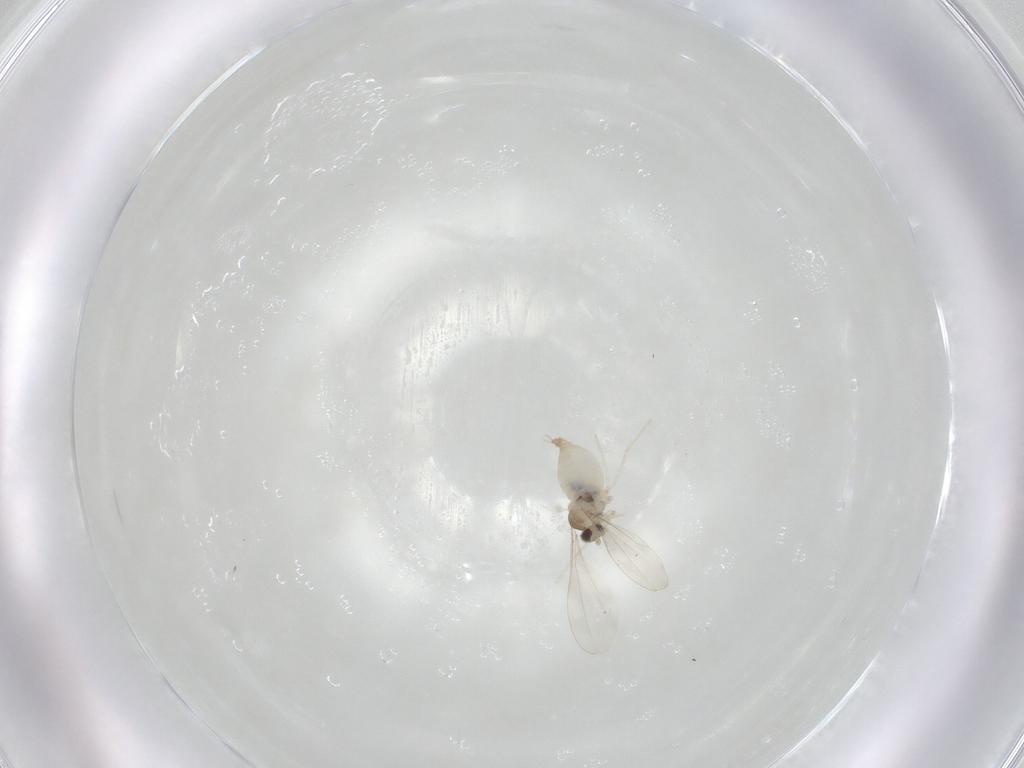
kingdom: Animalia
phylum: Arthropoda
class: Insecta
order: Diptera
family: Cecidomyiidae
